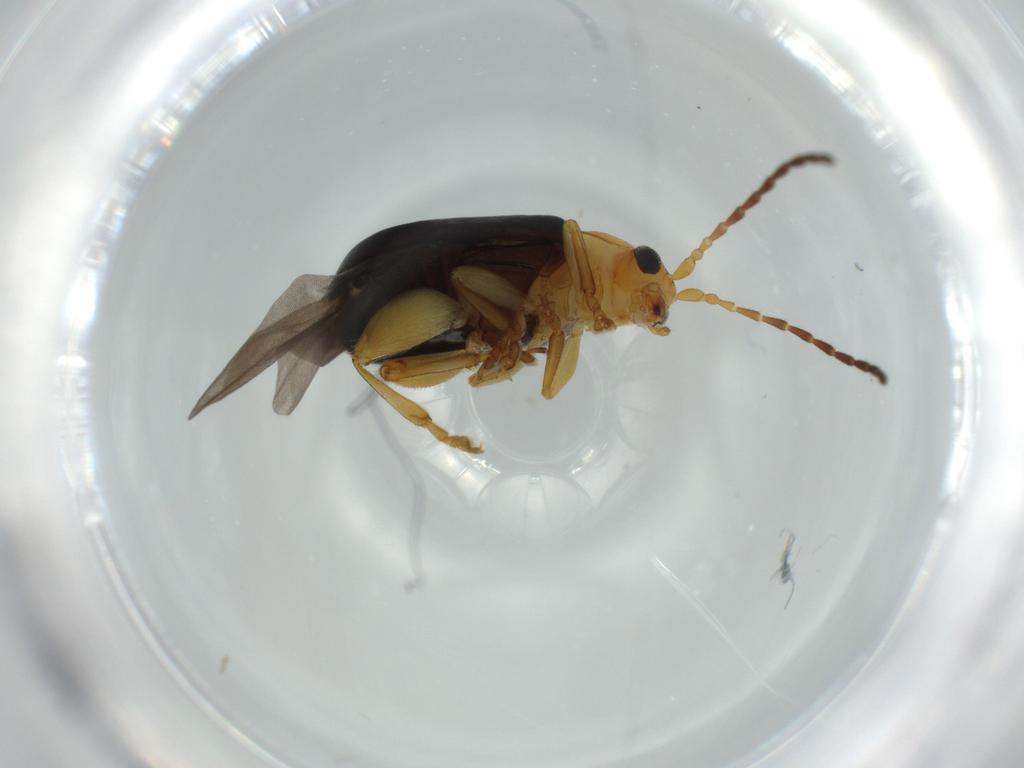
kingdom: Animalia
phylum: Arthropoda
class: Insecta
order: Coleoptera
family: Chrysomelidae
